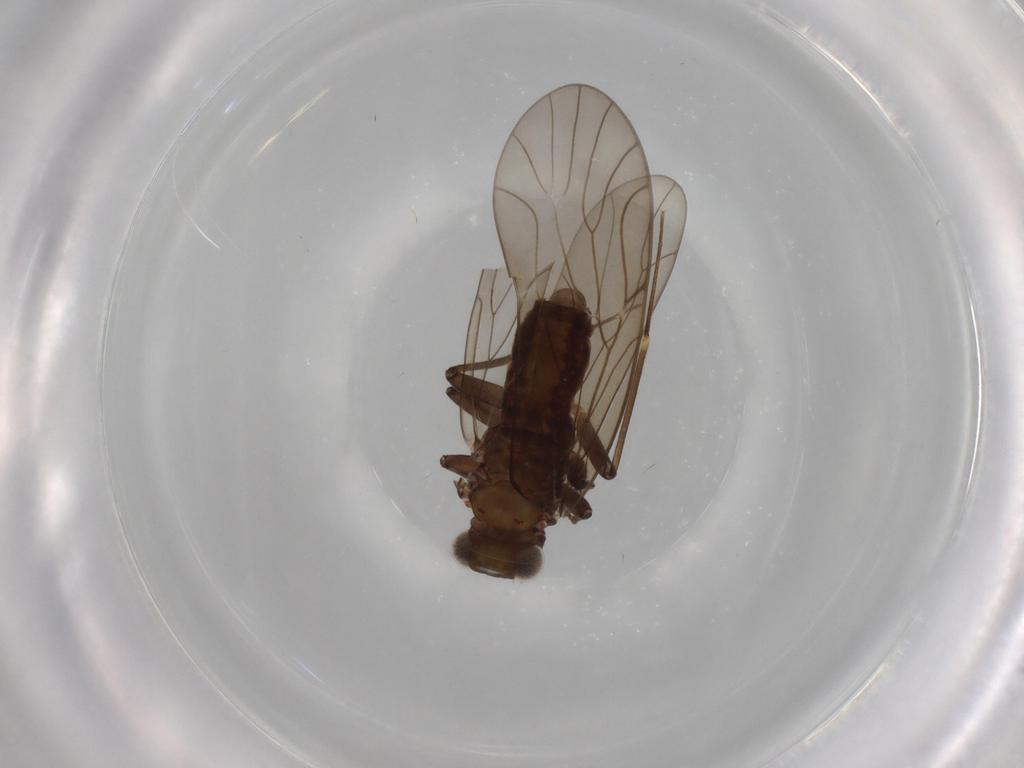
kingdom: Animalia
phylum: Arthropoda
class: Insecta
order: Psocodea
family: Philotarsidae
